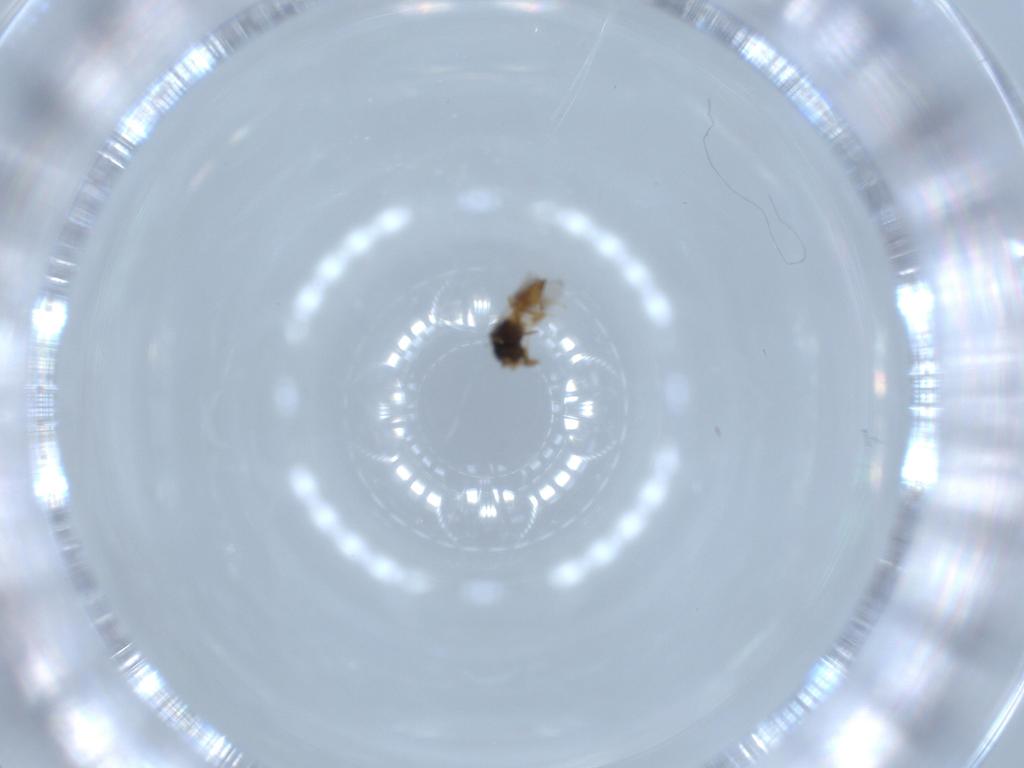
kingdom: Animalia
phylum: Arthropoda
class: Insecta
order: Hymenoptera
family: Scelionidae
